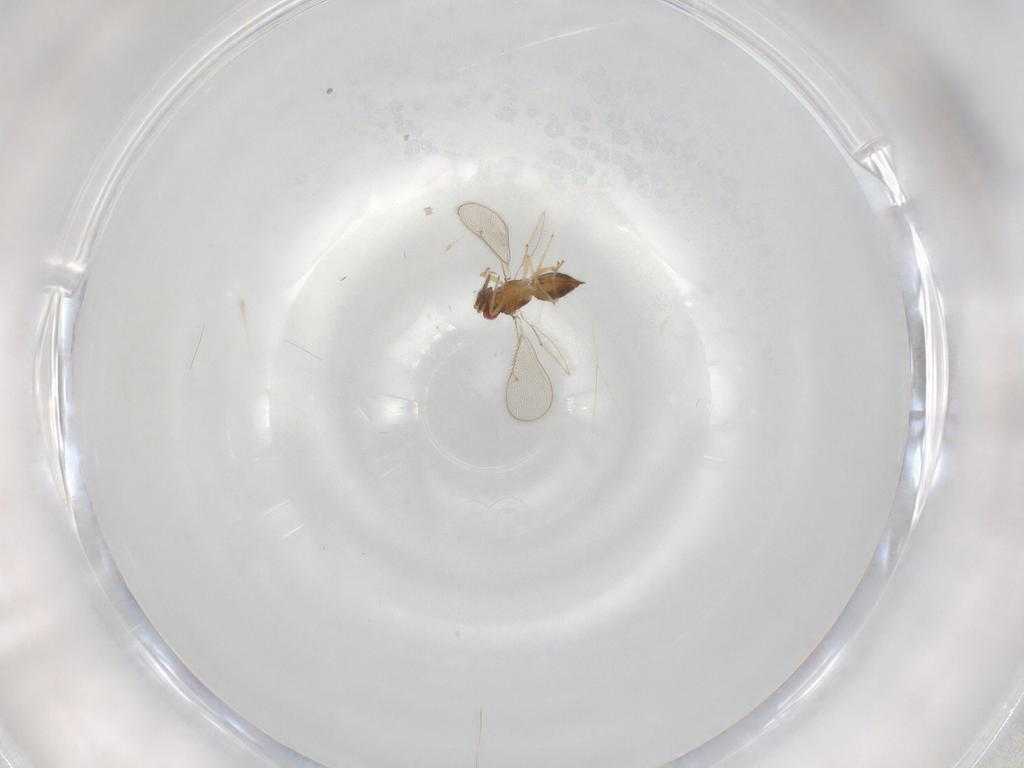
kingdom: Animalia
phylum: Arthropoda
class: Insecta
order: Hymenoptera
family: Eulophidae
